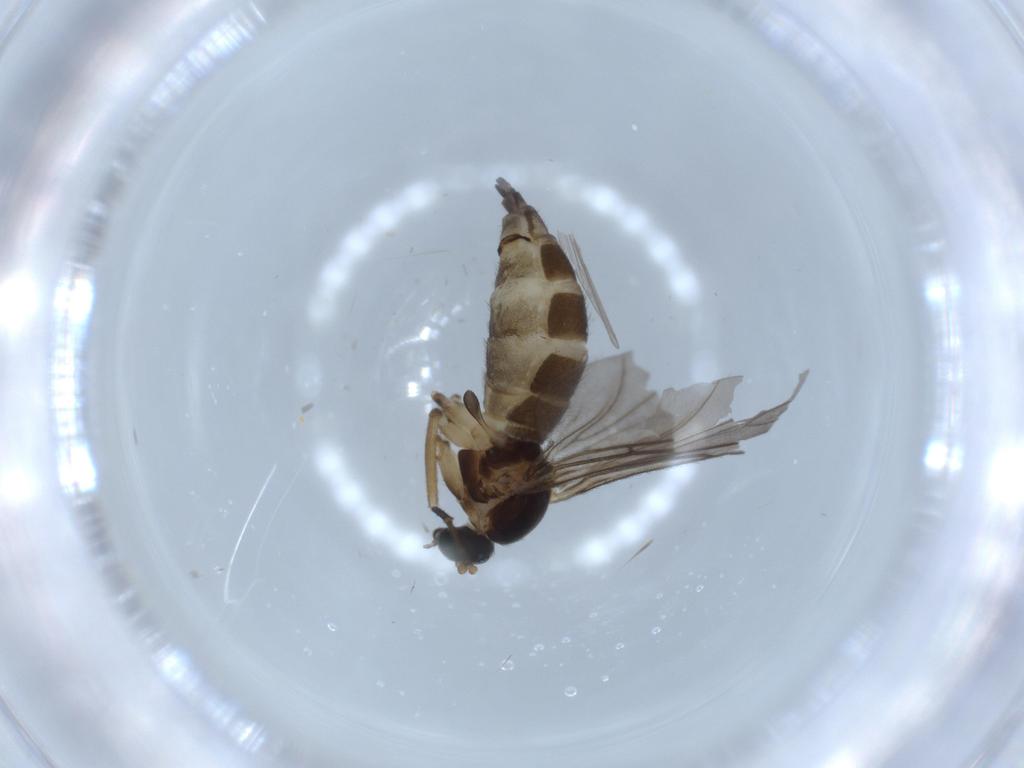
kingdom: Animalia
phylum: Arthropoda
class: Insecta
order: Diptera
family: Sciaridae
